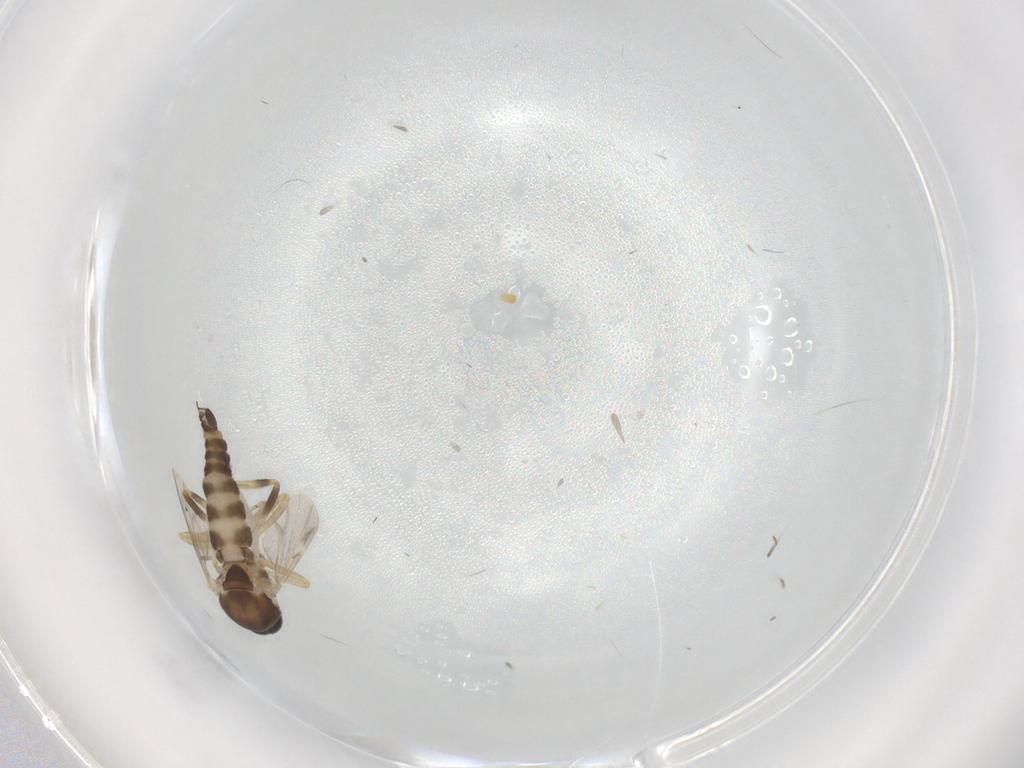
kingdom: Animalia
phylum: Arthropoda
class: Insecta
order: Diptera
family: Ceratopogonidae
